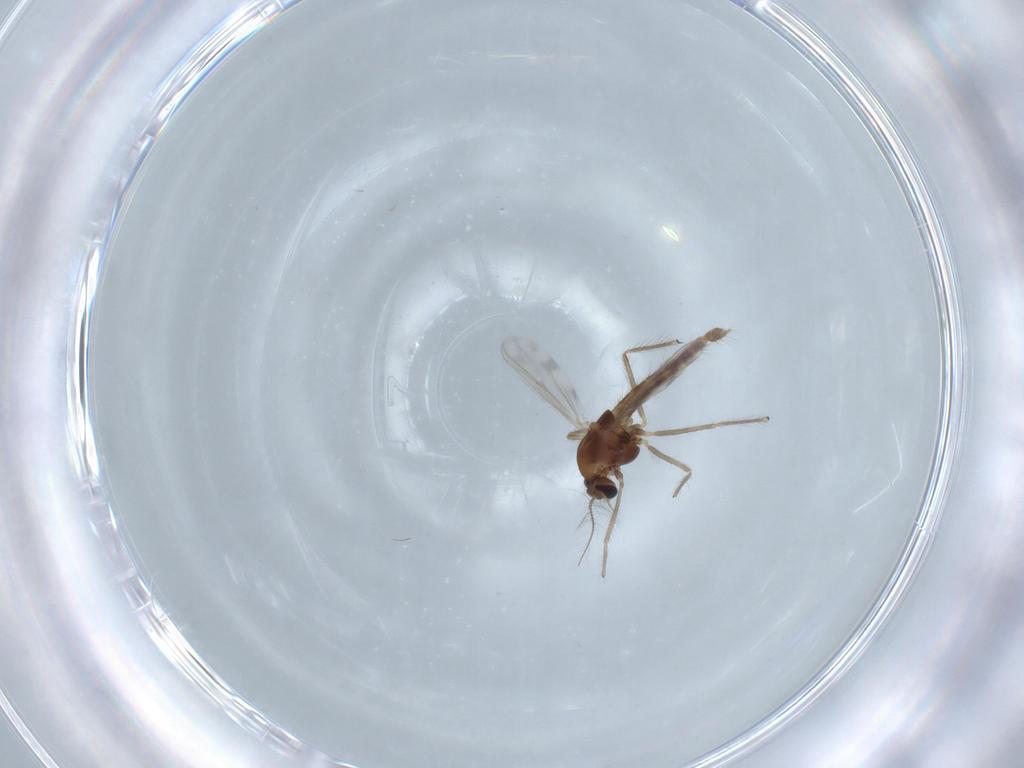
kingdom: Animalia
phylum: Arthropoda
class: Insecta
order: Diptera
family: Chironomidae
